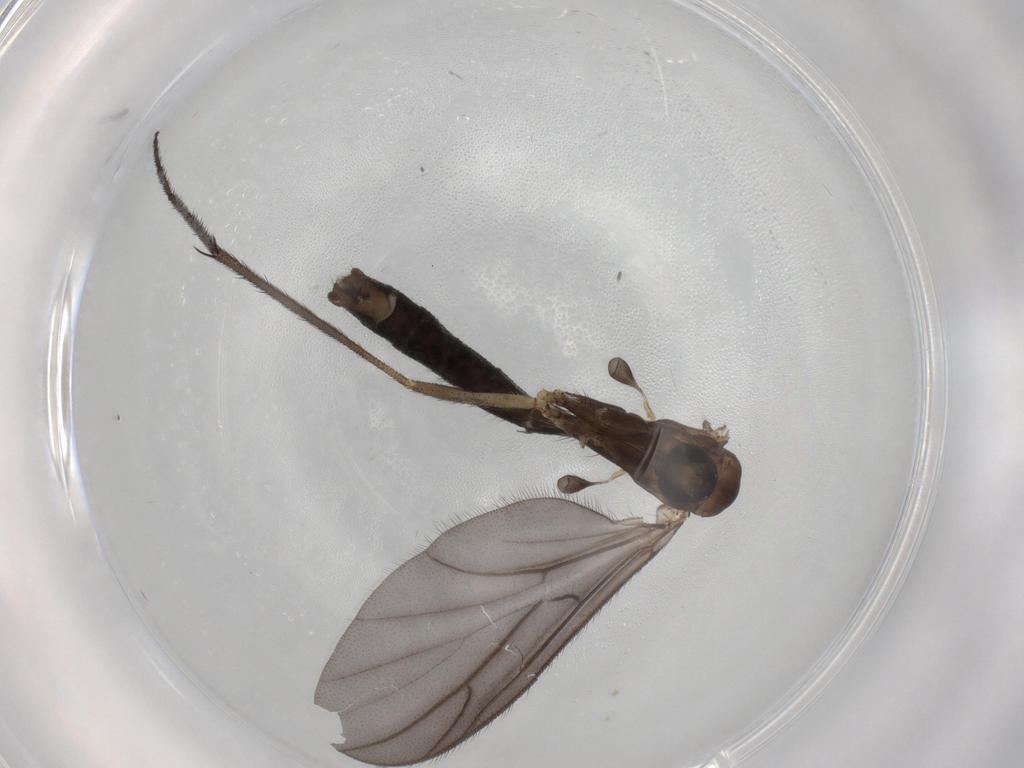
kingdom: Animalia
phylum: Arthropoda
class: Insecta
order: Diptera
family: Ditomyiidae
